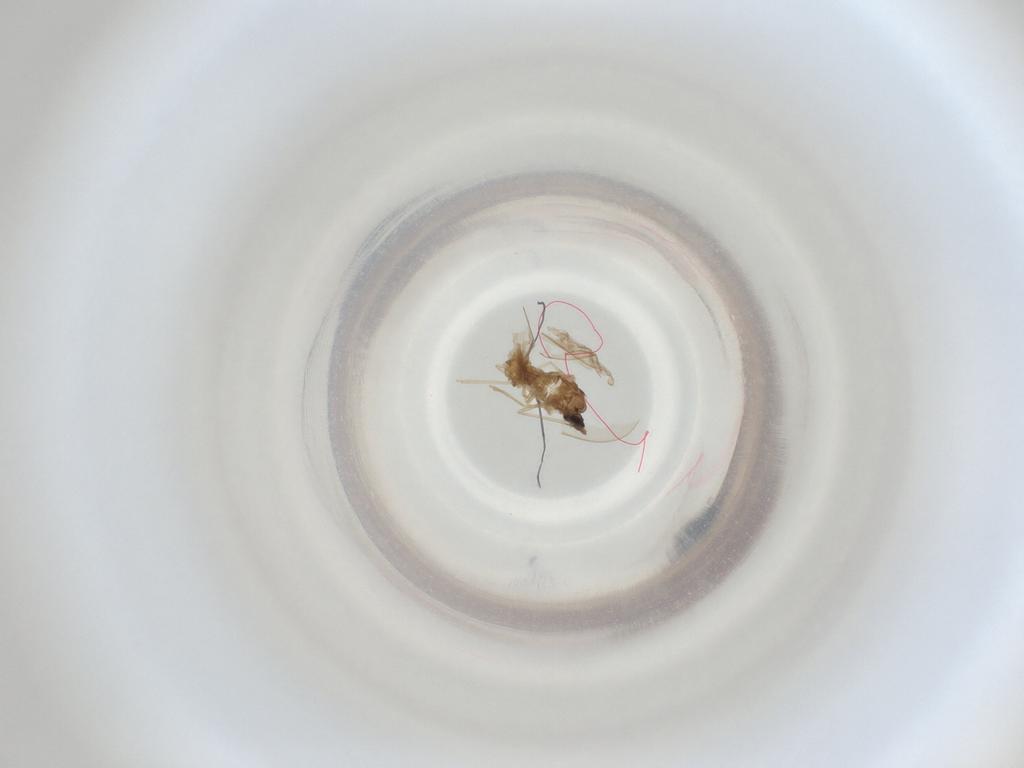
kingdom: Animalia
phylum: Arthropoda
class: Insecta
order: Diptera
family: Cecidomyiidae
